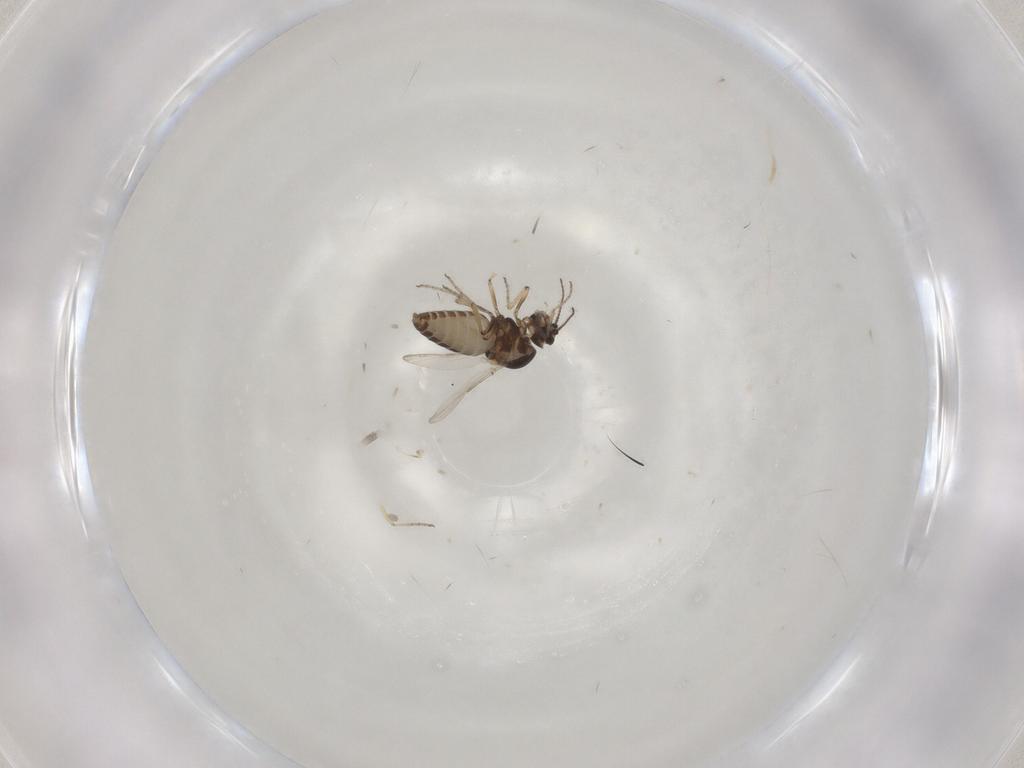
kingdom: Animalia
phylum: Arthropoda
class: Insecta
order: Diptera
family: Ceratopogonidae
